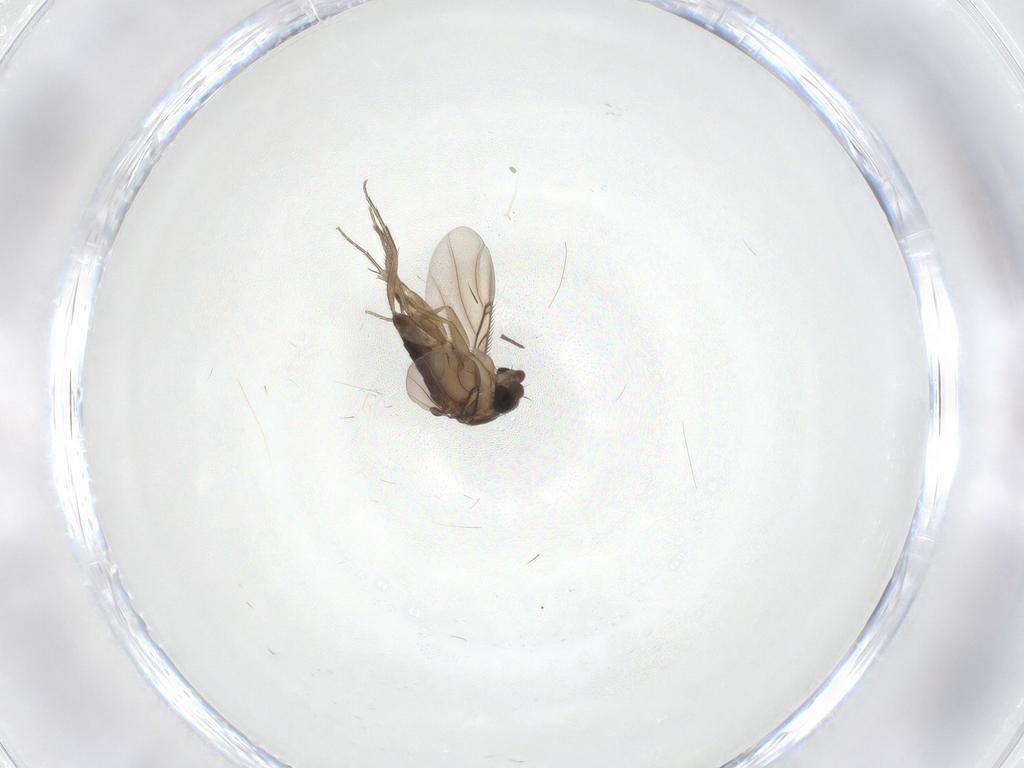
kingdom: Animalia
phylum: Arthropoda
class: Insecta
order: Diptera
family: Phoridae
